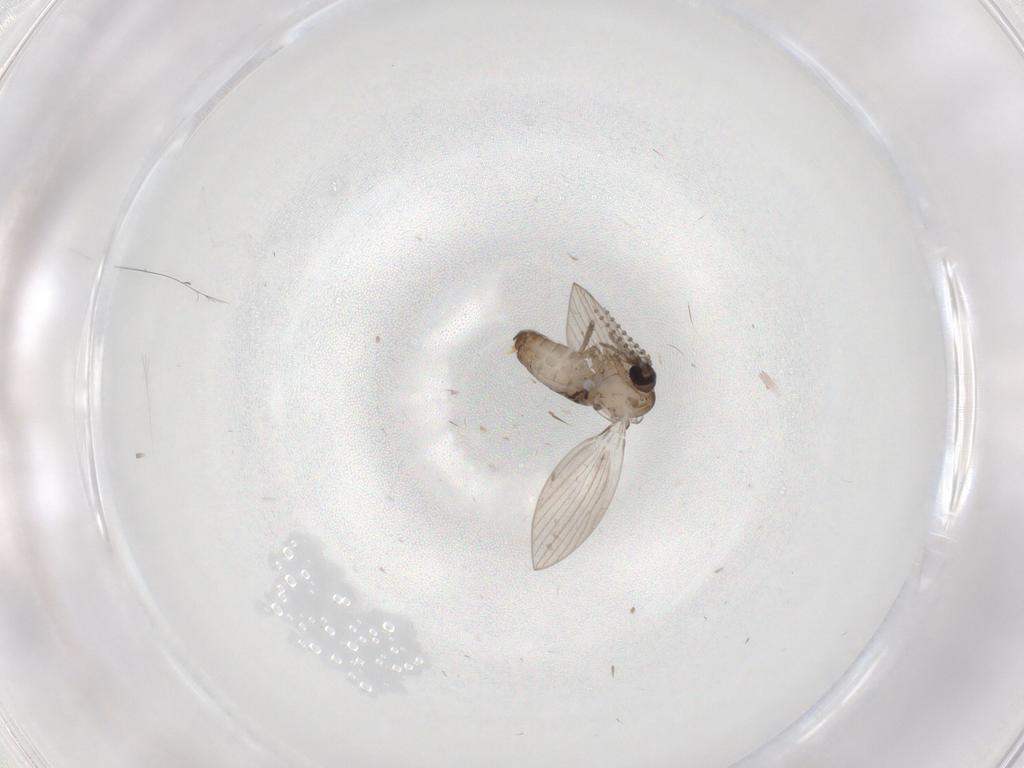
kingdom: Animalia
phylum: Arthropoda
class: Insecta
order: Diptera
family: Psychodidae
